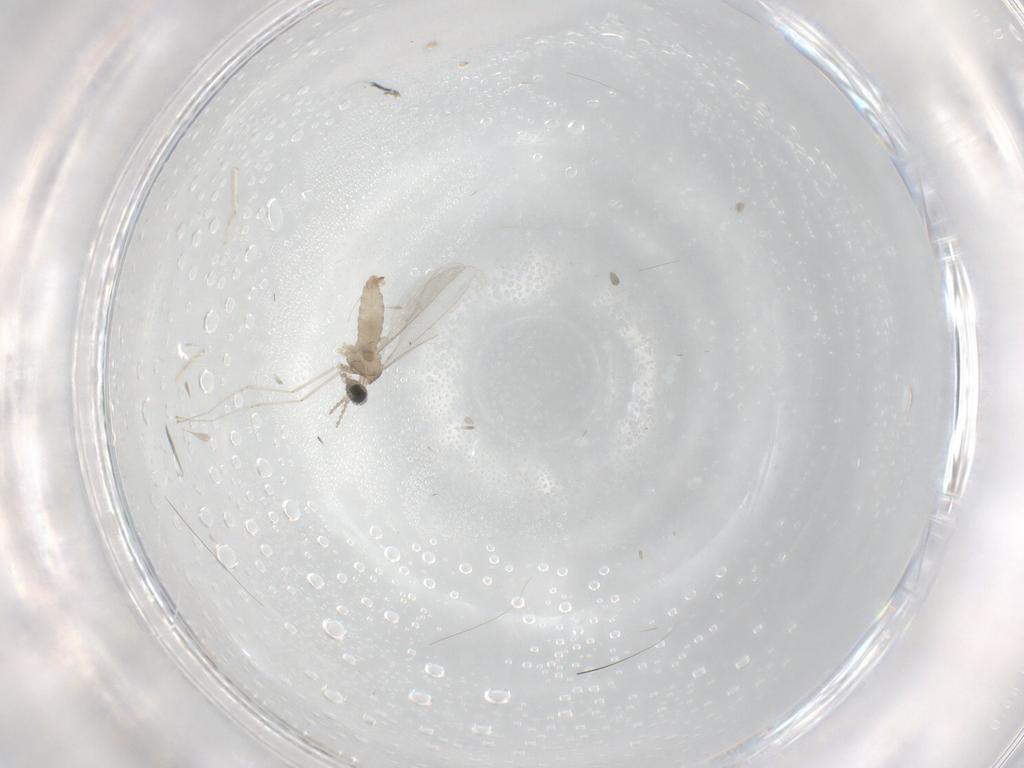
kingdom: Animalia
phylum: Arthropoda
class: Insecta
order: Diptera
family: Cecidomyiidae
